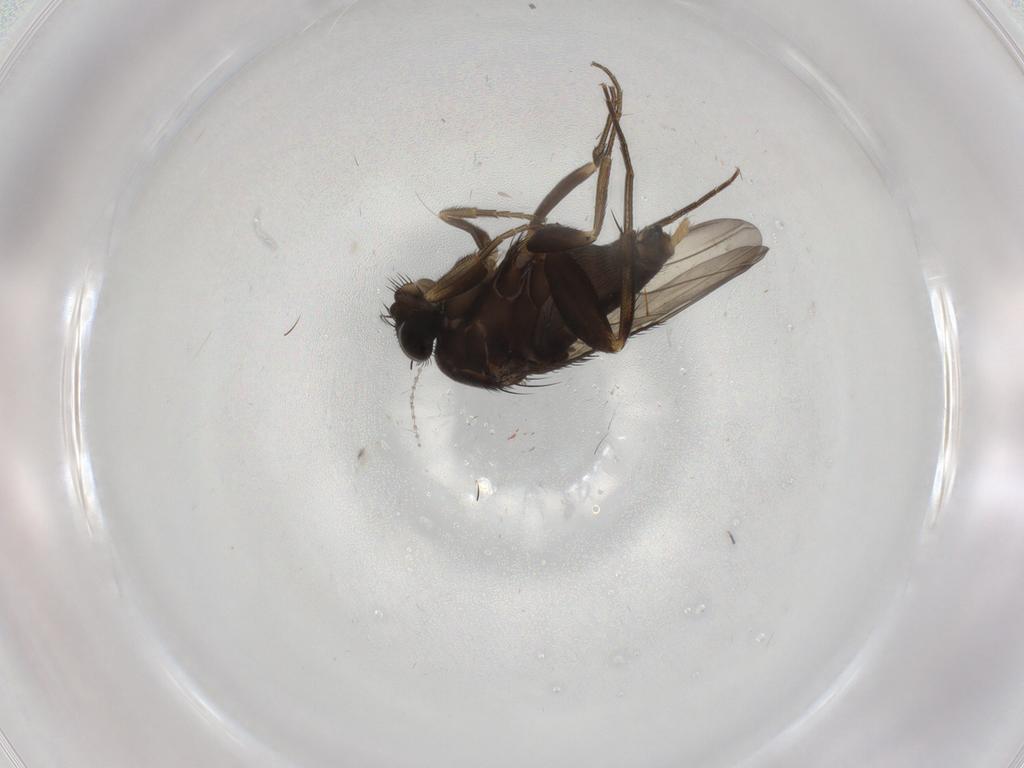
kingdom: Animalia
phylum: Arthropoda
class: Insecta
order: Diptera
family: Phoridae
